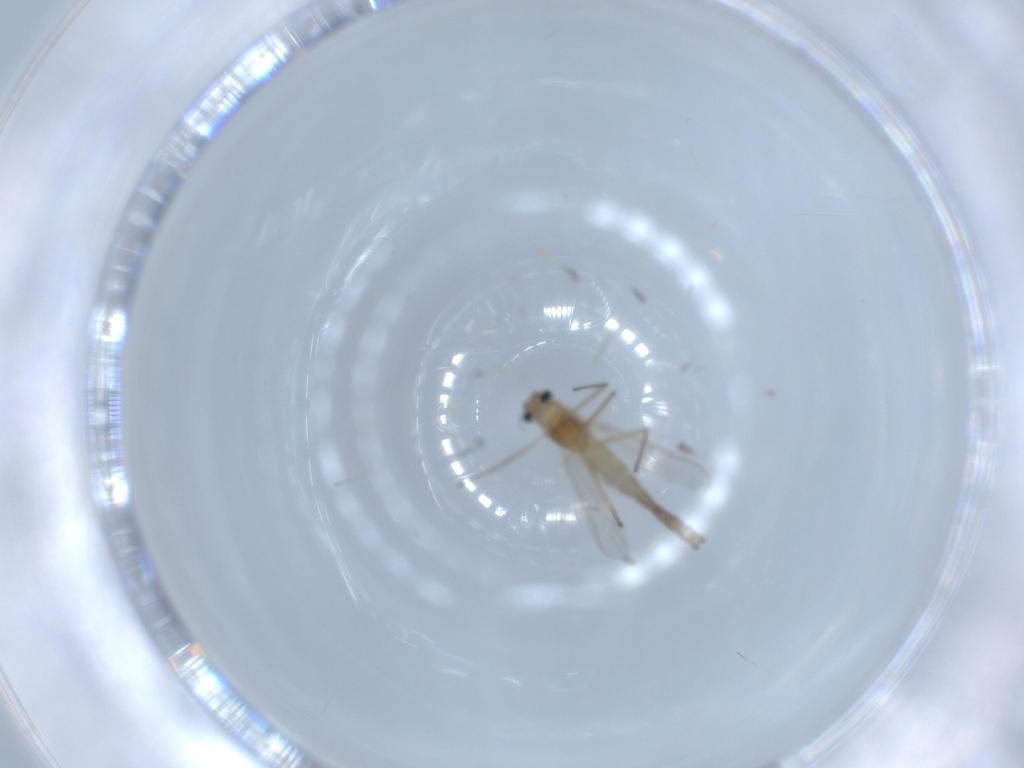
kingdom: Animalia
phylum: Arthropoda
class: Insecta
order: Diptera
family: Chironomidae
